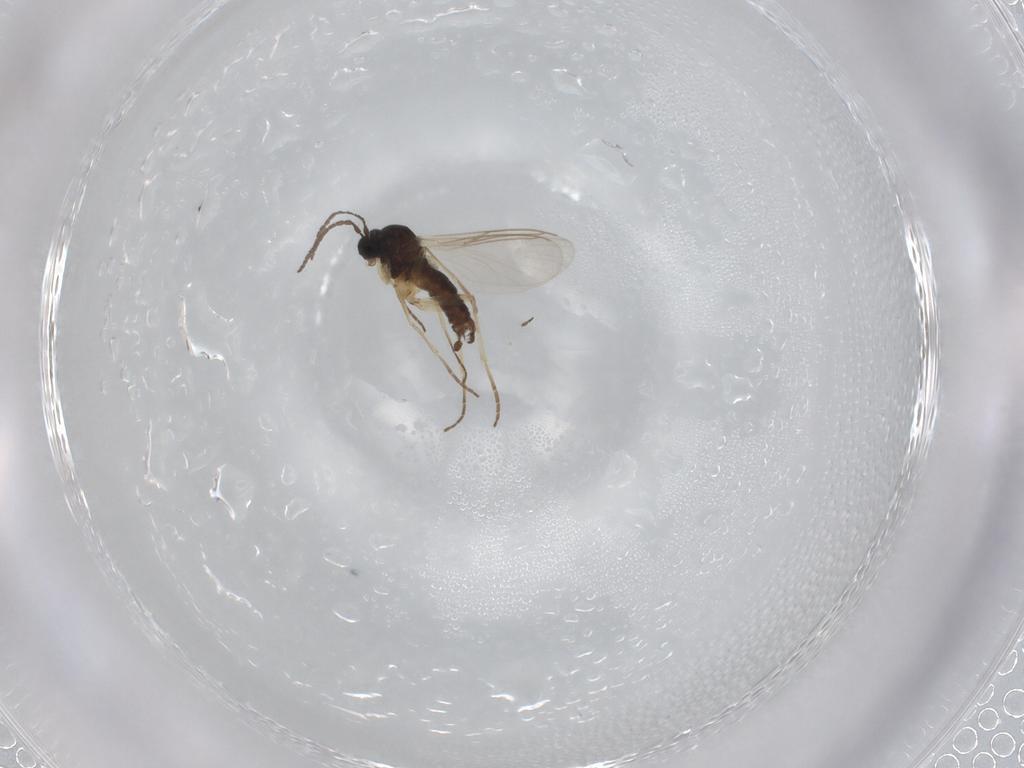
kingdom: Animalia
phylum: Arthropoda
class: Insecta
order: Diptera
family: Sciaridae
